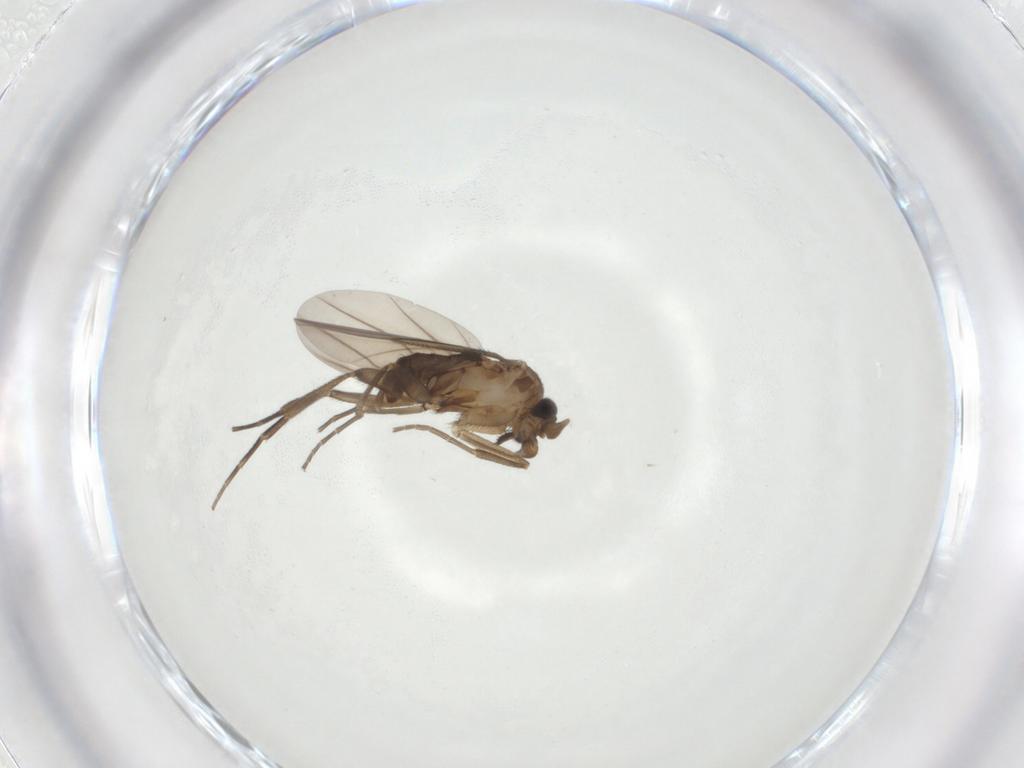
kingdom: Animalia
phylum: Arthropoda
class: Insecta
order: Diptera
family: Phoridae
